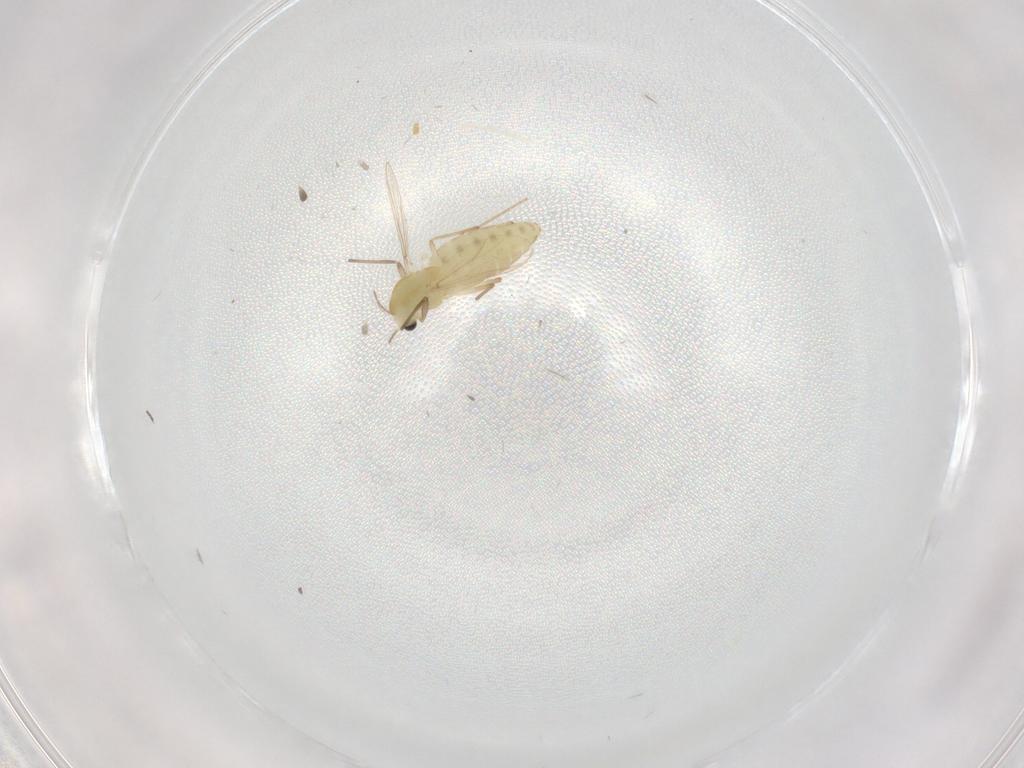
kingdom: Animalia
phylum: Arthropoda
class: Insecta
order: Diptera
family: Chironomidae
